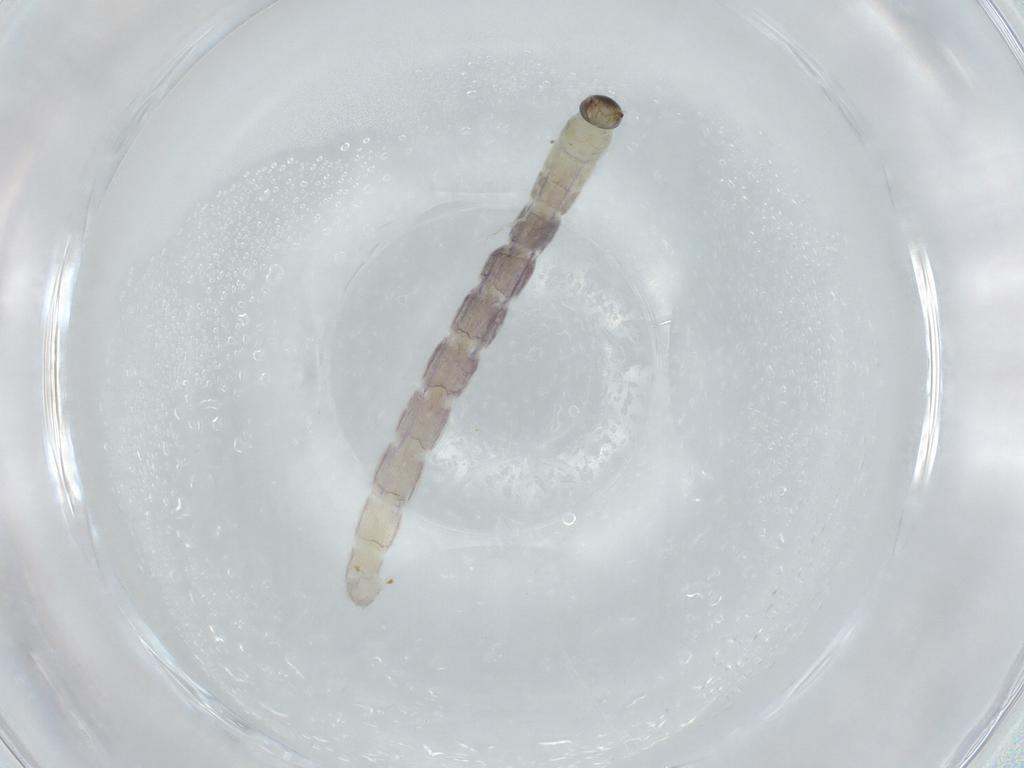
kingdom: Animalia
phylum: Arthropoda
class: Insecta
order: Diptera
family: Chironomidae
